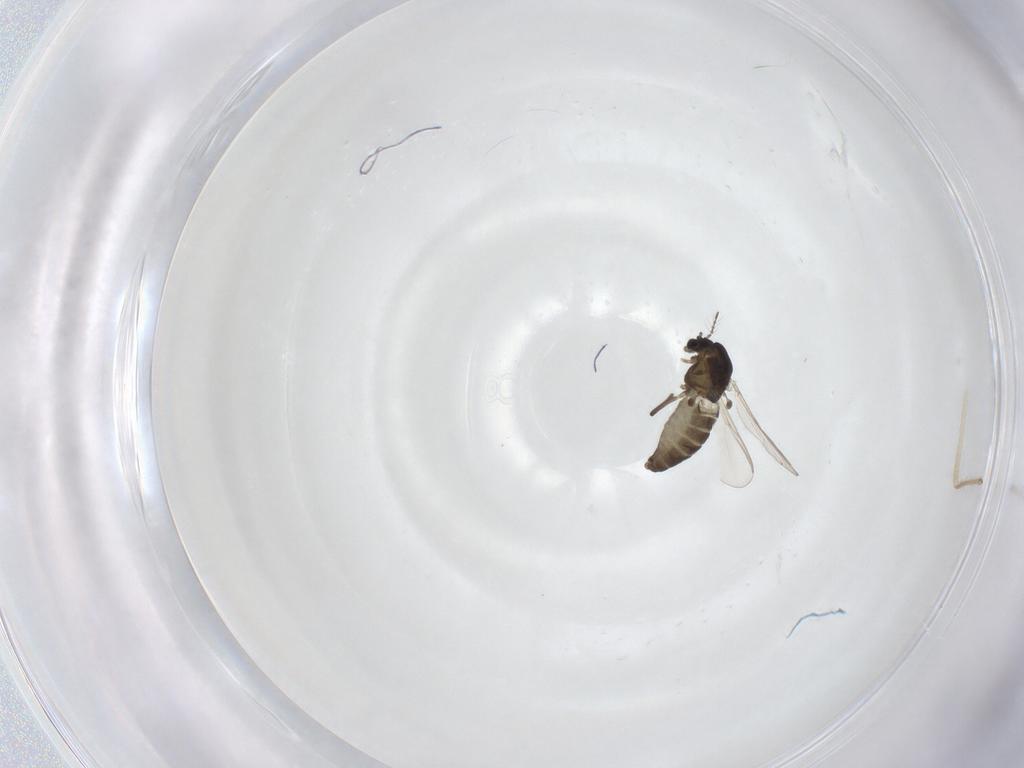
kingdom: Animalia
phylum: Arthropoda
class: Insecta
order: Diptera
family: Chironomidae
